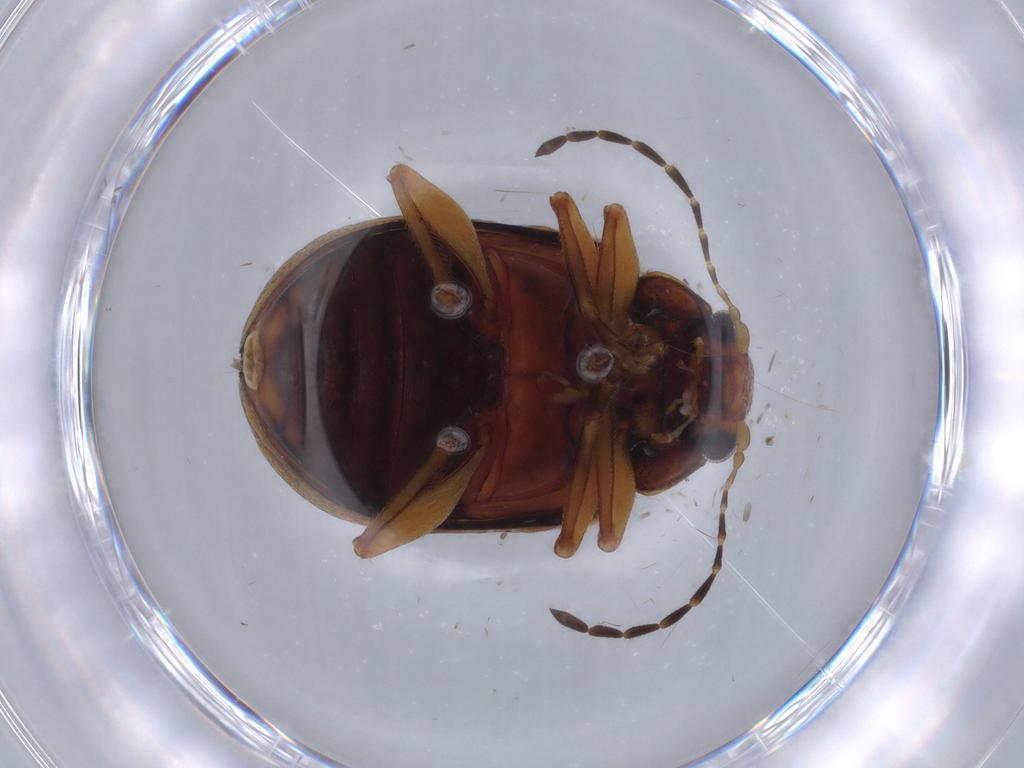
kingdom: Animalia
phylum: Arthropoda
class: Insecta
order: Coleoptera
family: Chrysomelidae
